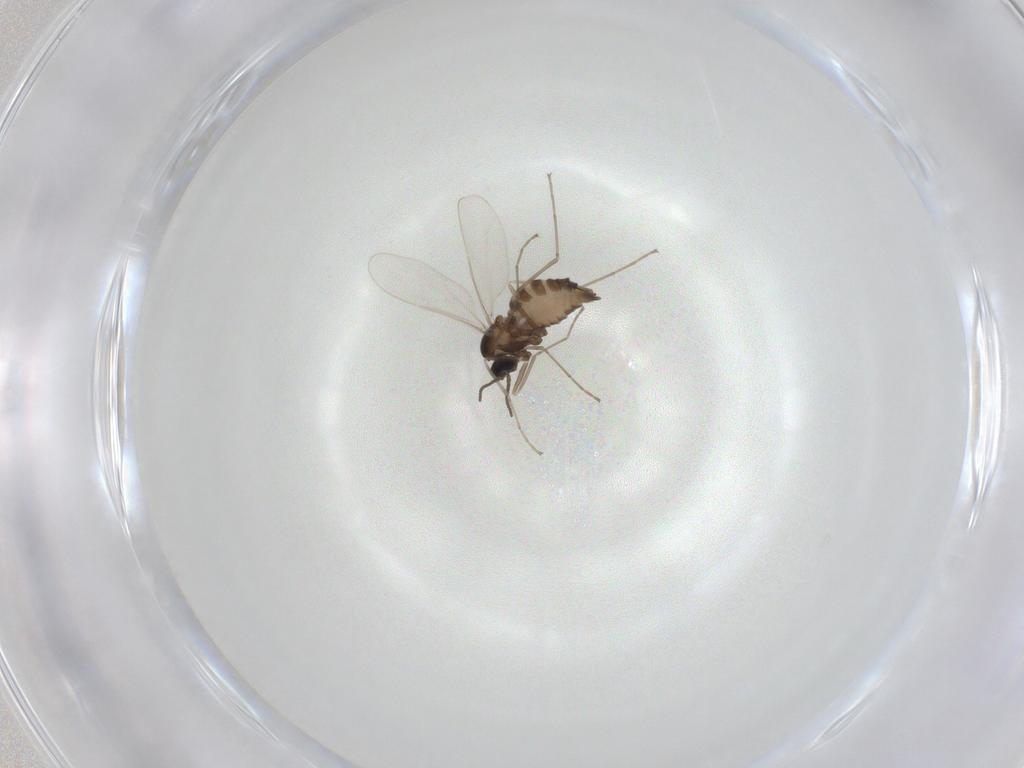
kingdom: Animalia
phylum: Arthropoda
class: Insecta
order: Diptera
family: Cecidomyiidae
